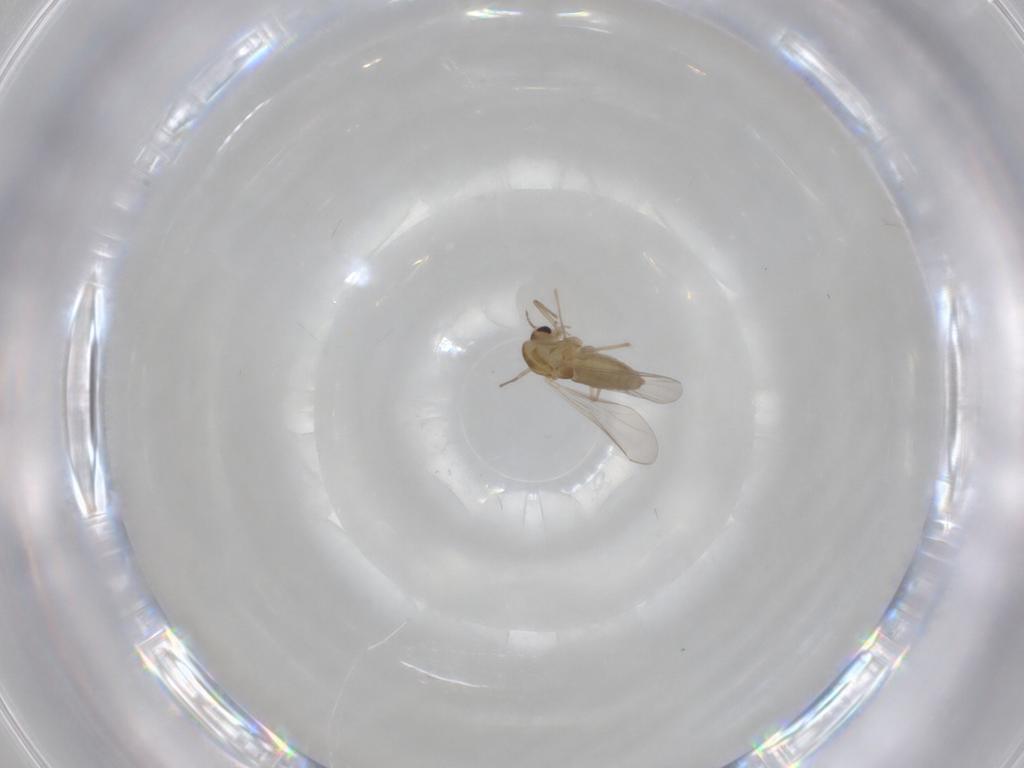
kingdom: Animalia
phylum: Arthropoda
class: Insecta
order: Diptera
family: Chironomidae
